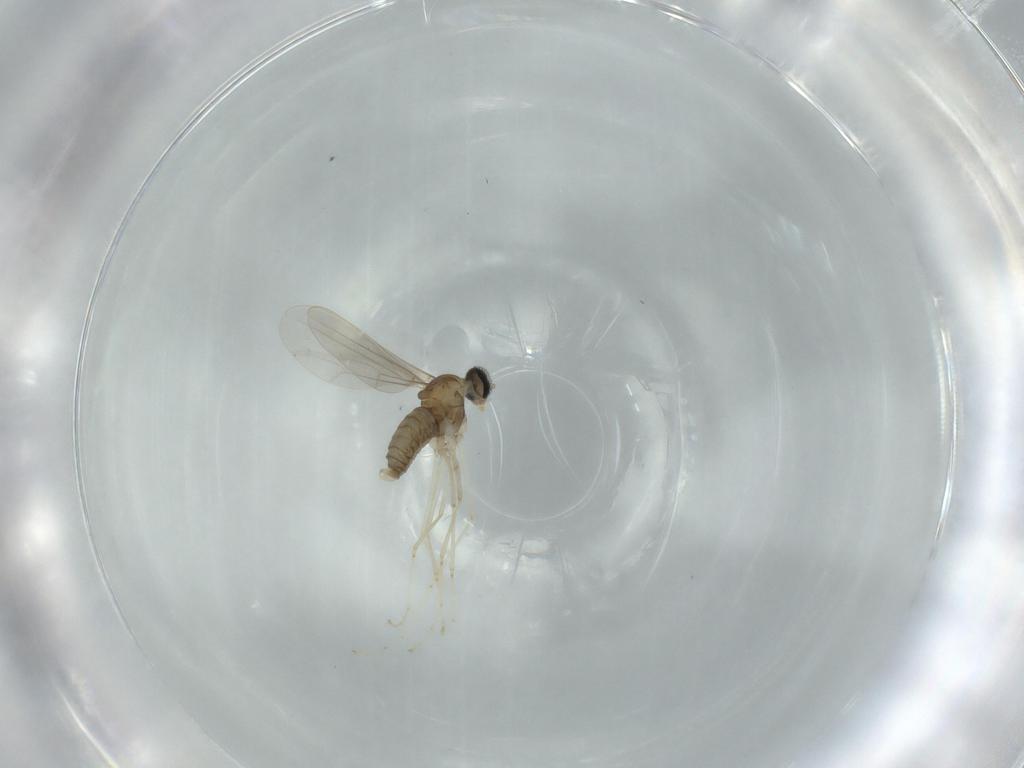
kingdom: Animalia
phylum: Arthropoda
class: Insecta
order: Diptera
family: Cecidomyiidae
